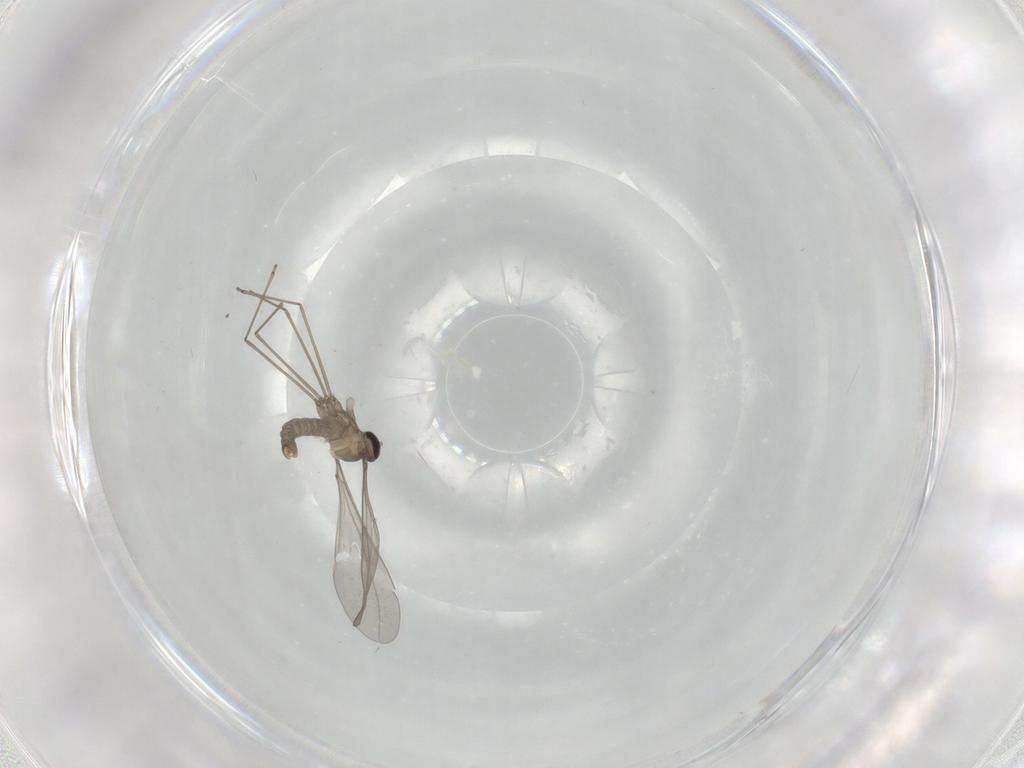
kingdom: Animalia
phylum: Arthropoda
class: Insecta
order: Diptera
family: Cecidomyiidae
